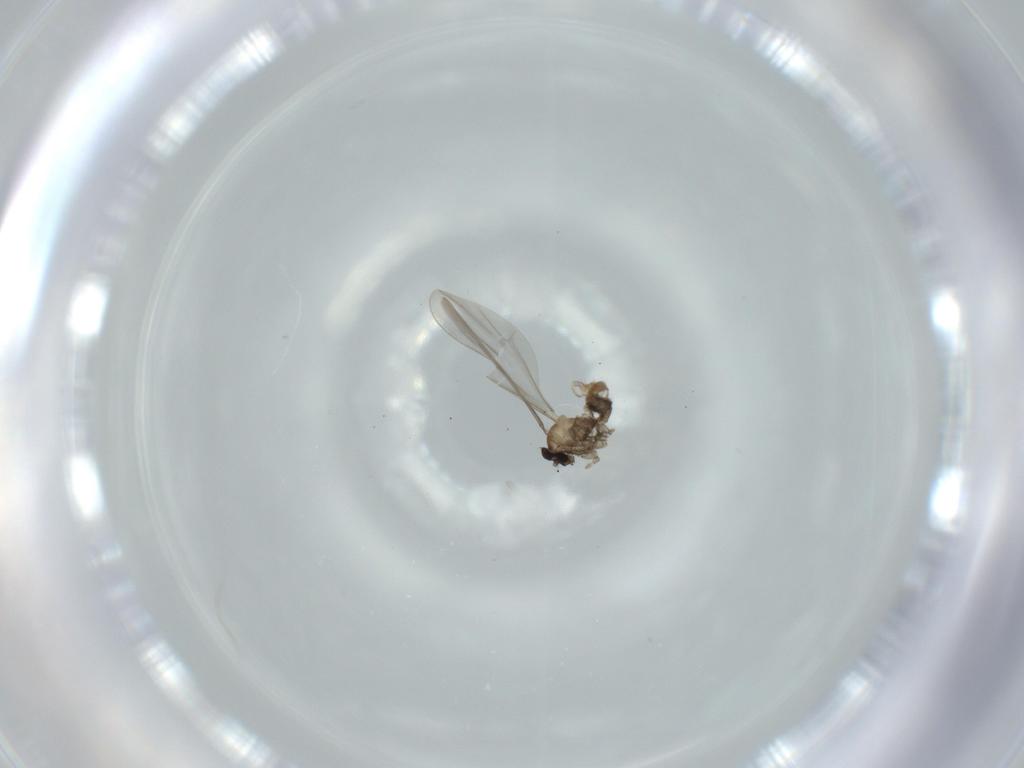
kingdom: Animalia
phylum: Arthropoda
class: Insecta
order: Diptera
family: Cecidomyiidae
